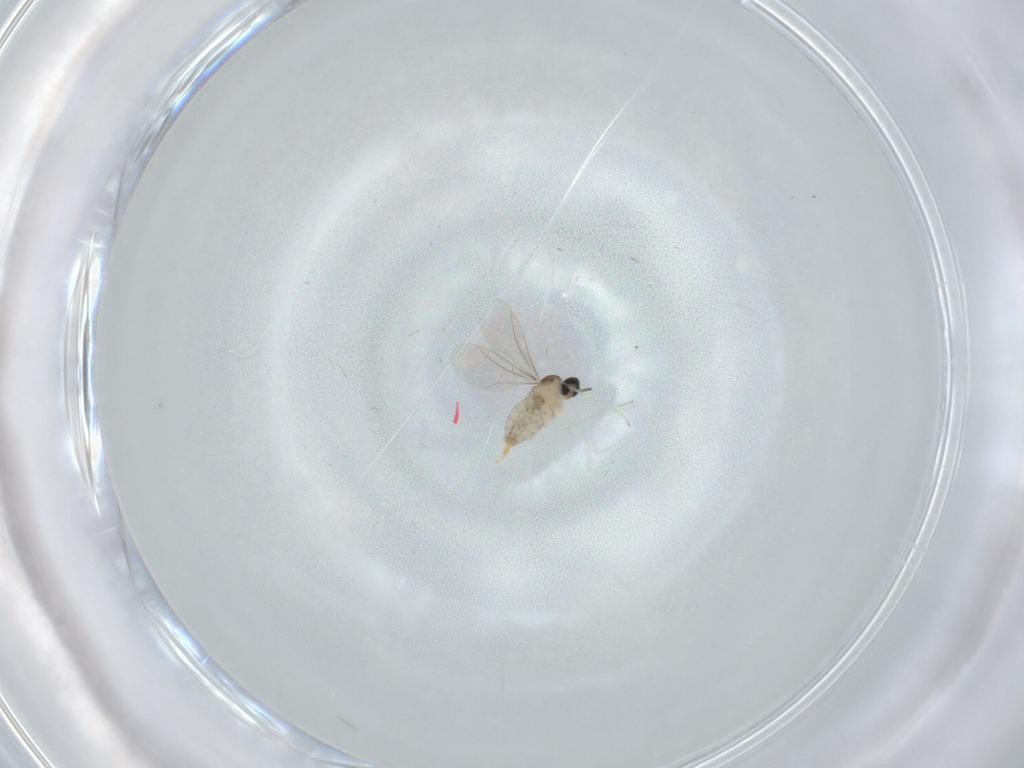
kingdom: Animalia
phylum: Arthropoda
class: Insecta
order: Diptera
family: Cecidomyiidae
